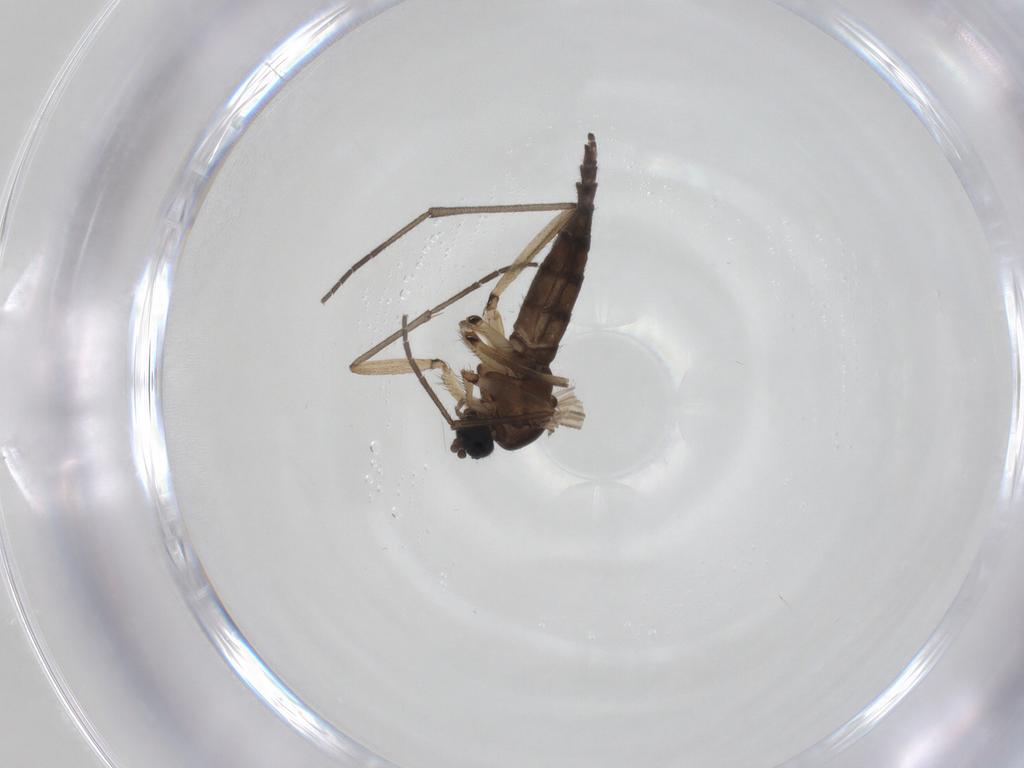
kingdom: Animalia
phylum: Arthropoda
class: Insecta
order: Diptera
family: Sciaridae
